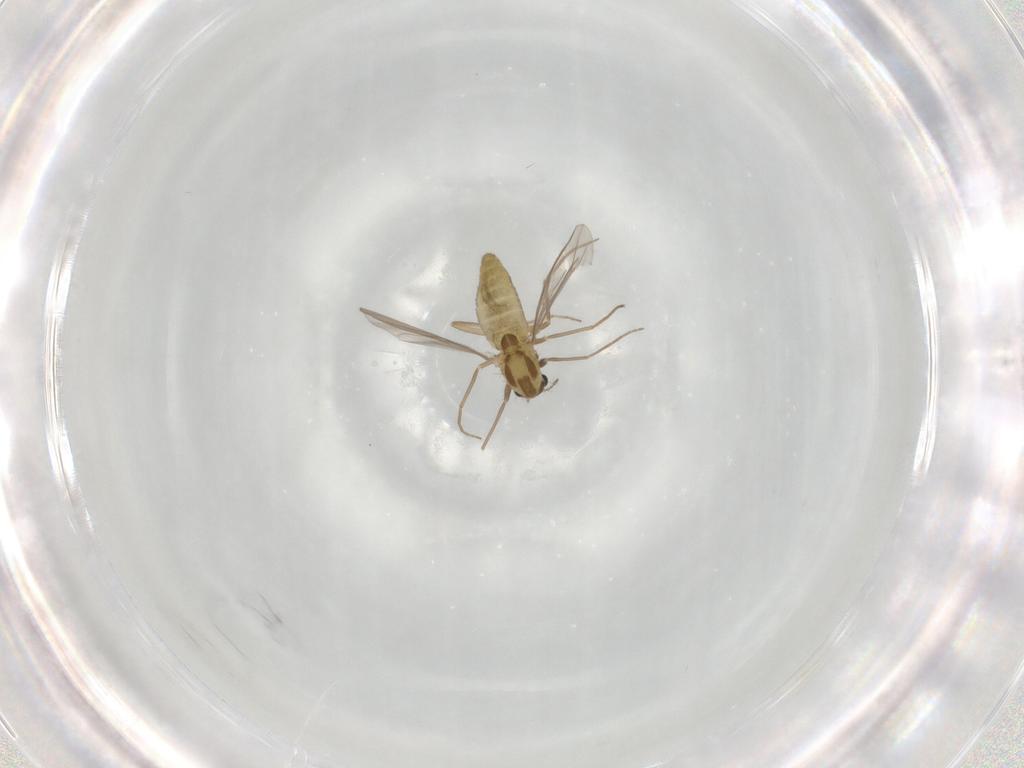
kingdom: Animalia
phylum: Arthropoda
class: Insecta
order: Diptera
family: Chironomidae
